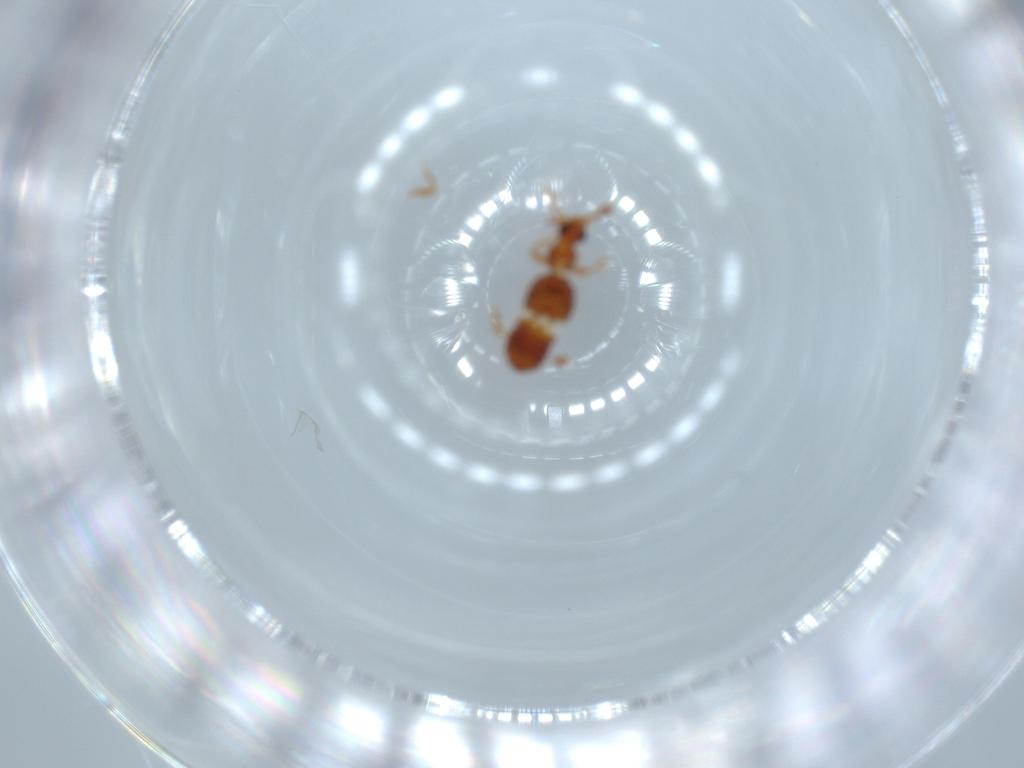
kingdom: Animalia
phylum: Arthropoda
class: Insecta
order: Coleoptera
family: Staphylinidae
